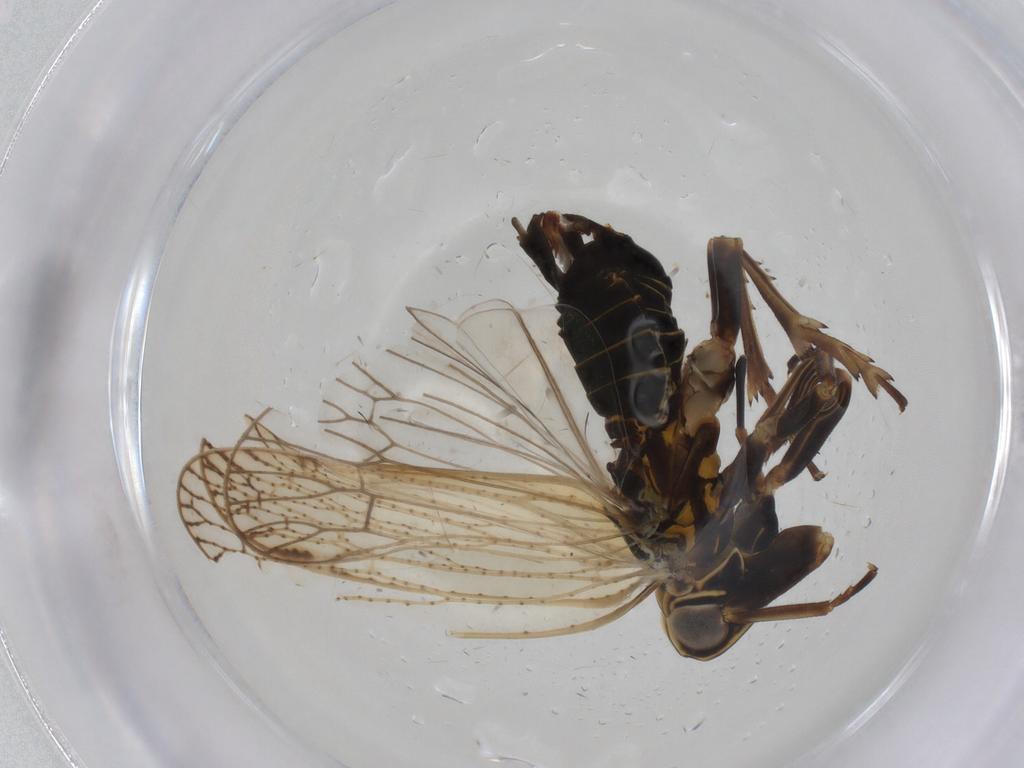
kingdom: Animalia
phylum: Arthropoda
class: Insecta
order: Hemiptera
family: Cixiidae
